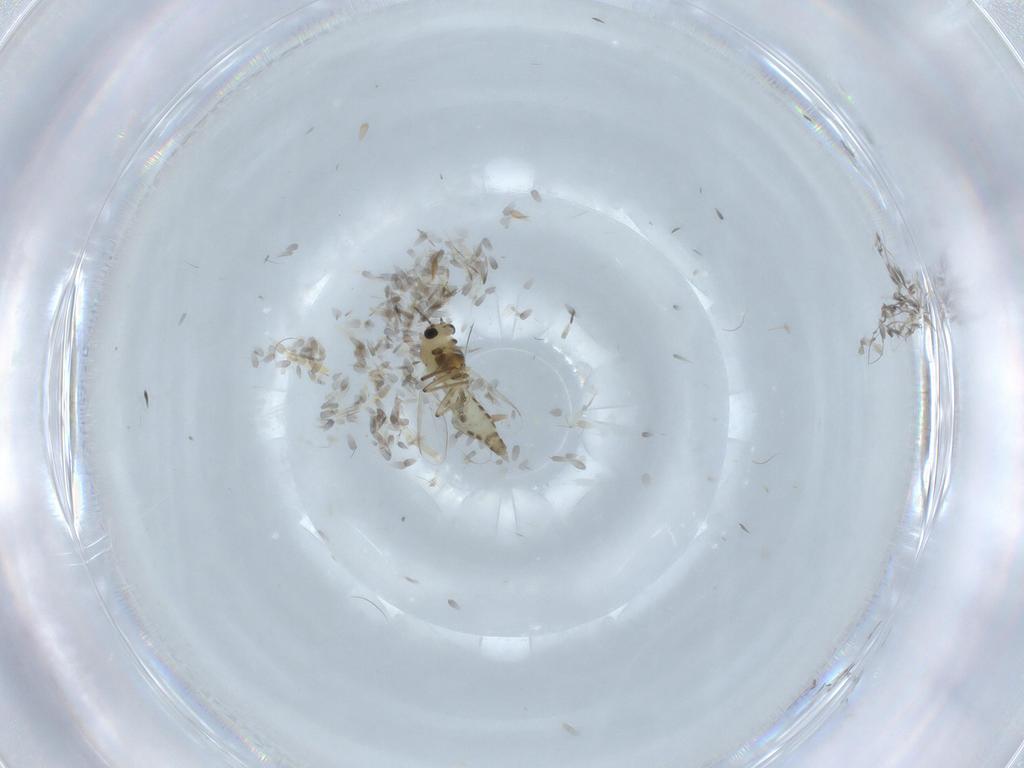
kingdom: Animalia
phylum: Arthropoda
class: Insecta
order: Diptera
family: Chironomidae
